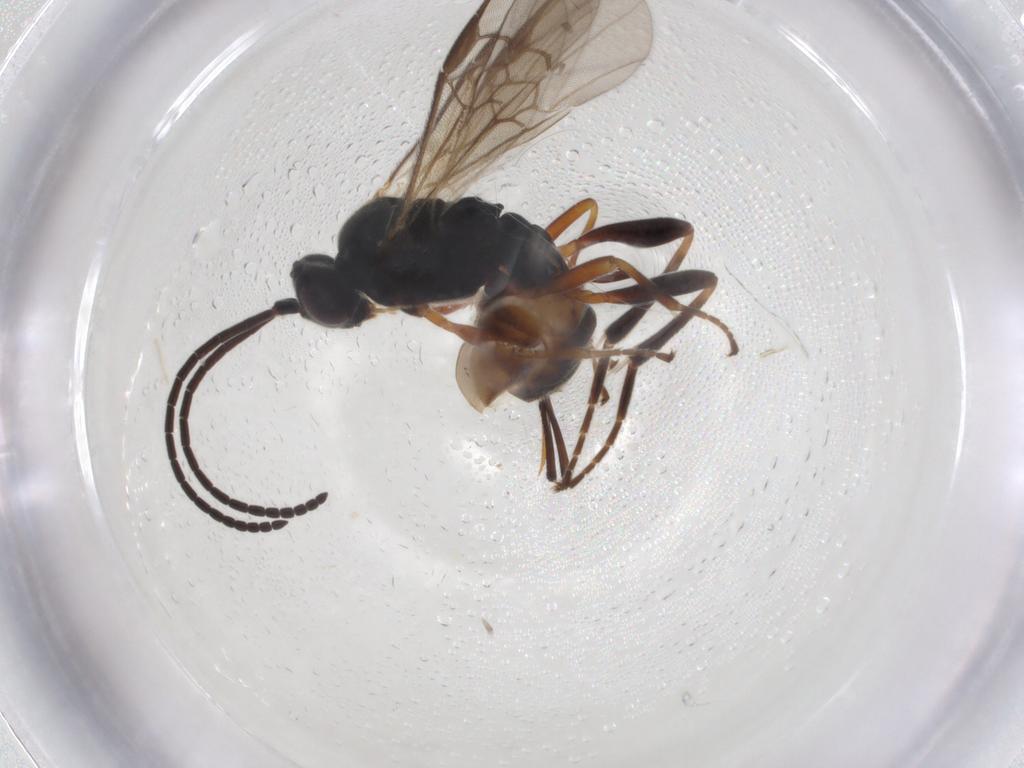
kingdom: Animalia
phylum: Arthropoda
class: Insecta
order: Hymenoptera
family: Braconidae
